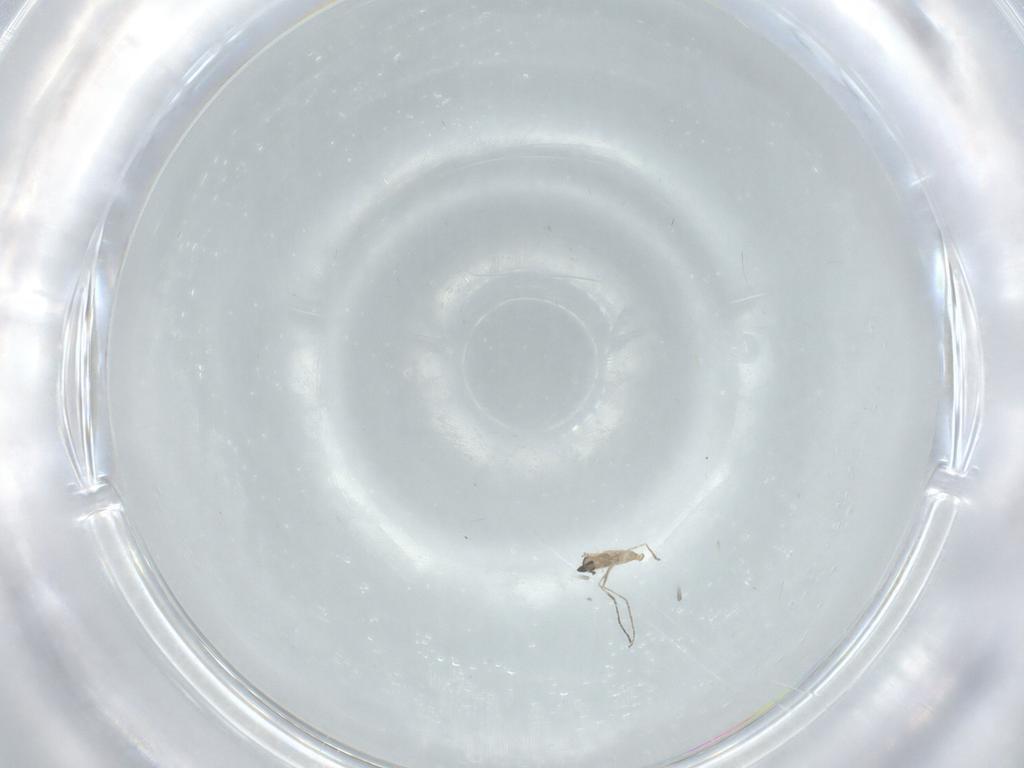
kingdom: Animalia
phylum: Arthropoda
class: Insecta
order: Diptera
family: Cecidomyiidae
